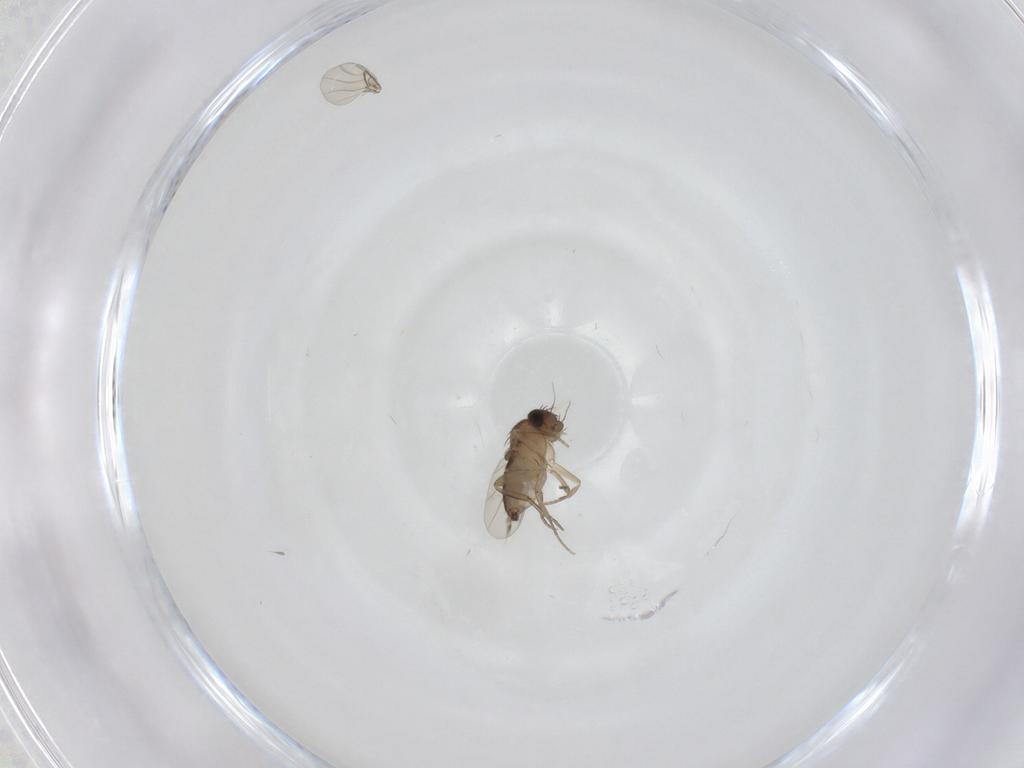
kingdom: Animalia
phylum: Arthropoda
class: Insecta
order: Diptera
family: Phoridae
